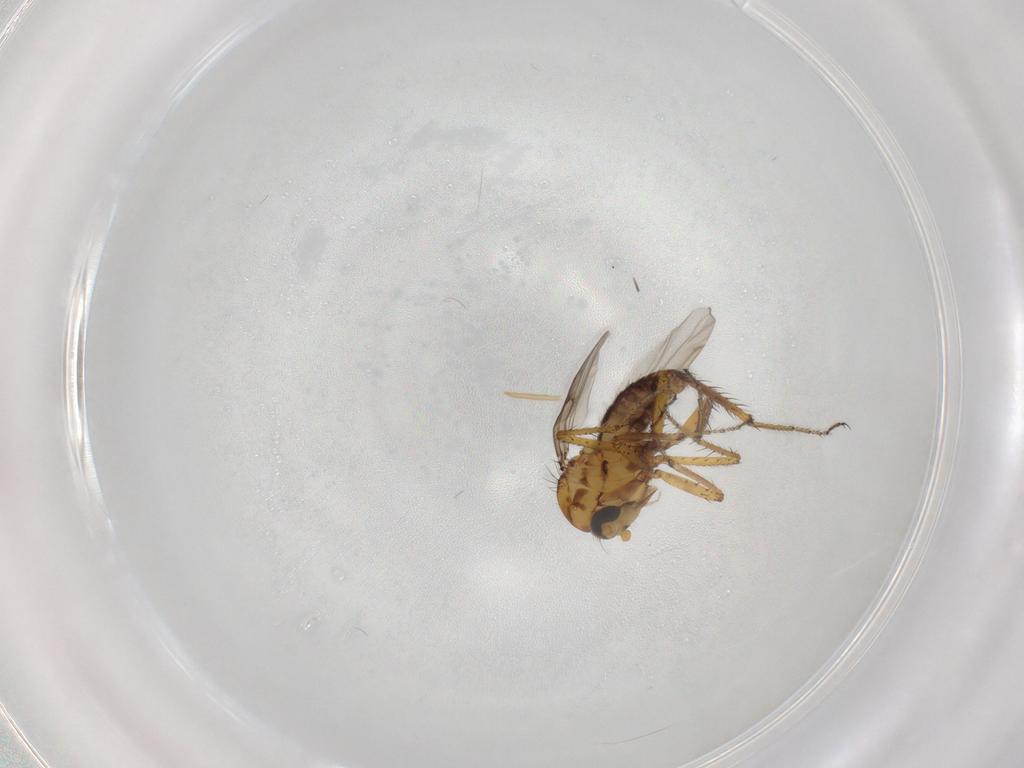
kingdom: Animalia
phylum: Arthropoda
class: Insecta
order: Diptera
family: Ceratopogonidae
